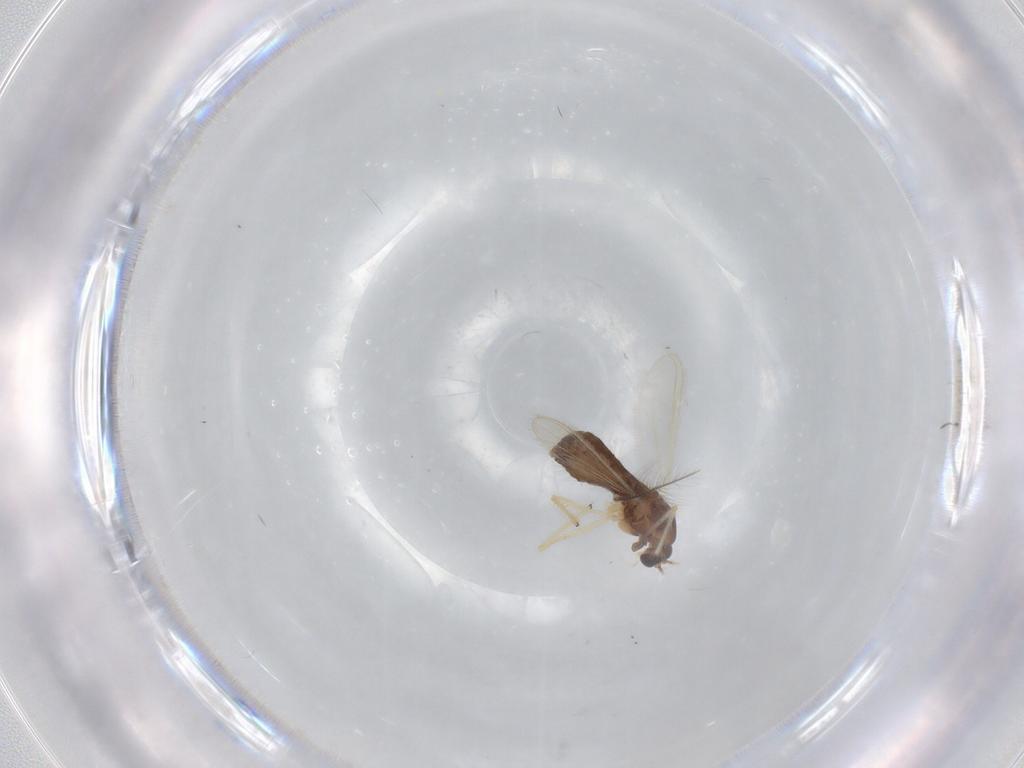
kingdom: Animalia
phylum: Arthropoda
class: Insecta
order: Diptera
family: Chironomidae
